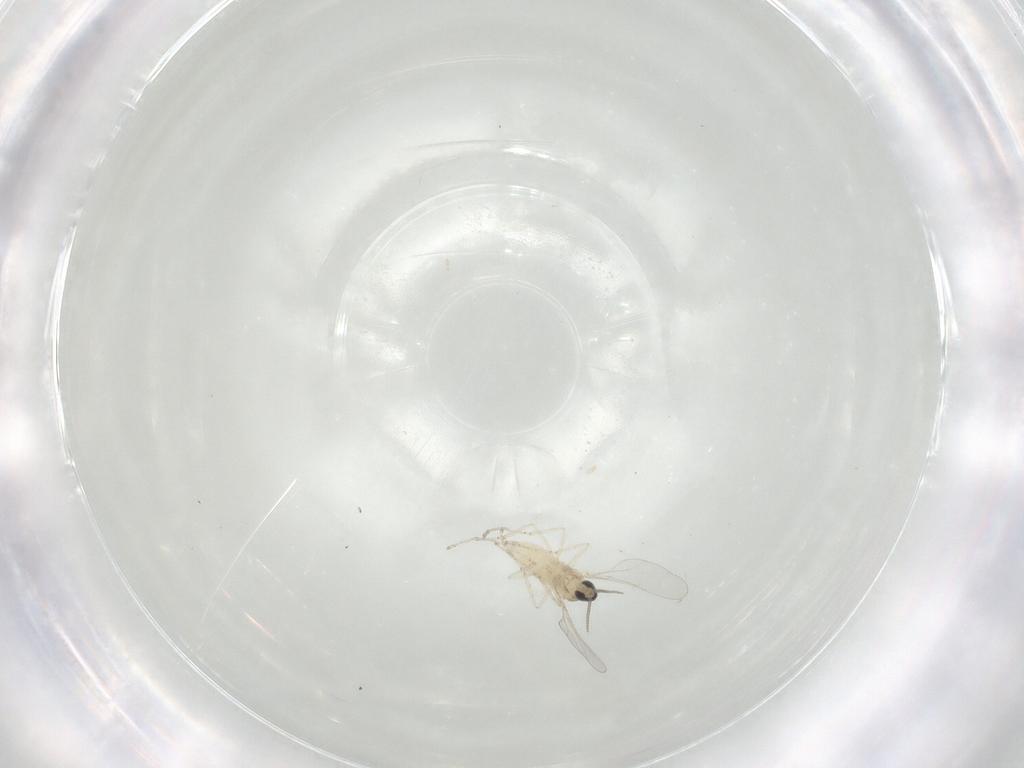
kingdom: Animalia
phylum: Arthropoda
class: Insecta
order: Diptera
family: Cecidomyiidae
